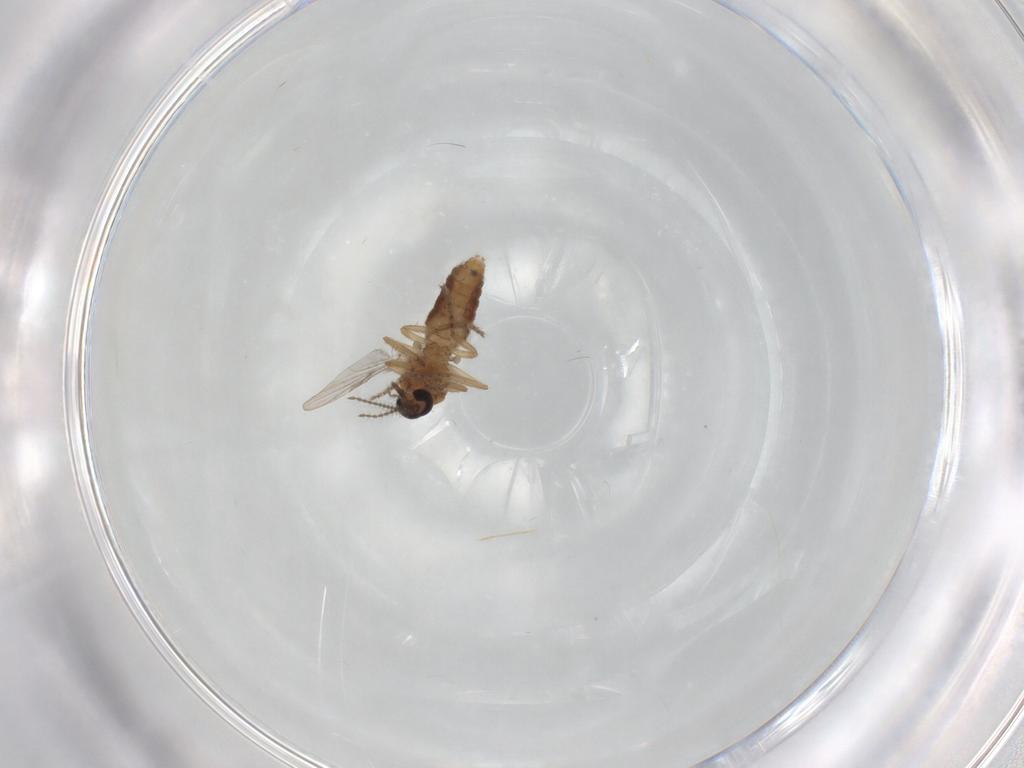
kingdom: Animalia
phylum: Arthropoda
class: Insecta
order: Diptera
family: Ceratopogonidae
